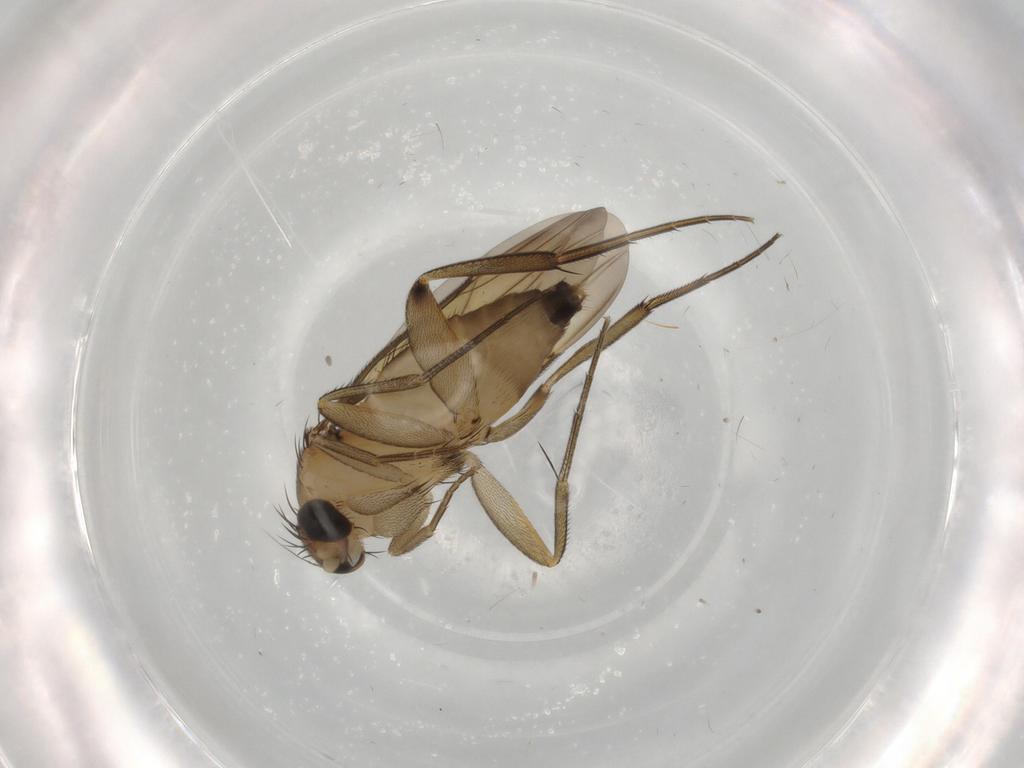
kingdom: Animalia
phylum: Arthropoda
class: Insecta
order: Diptera
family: Phoridae
